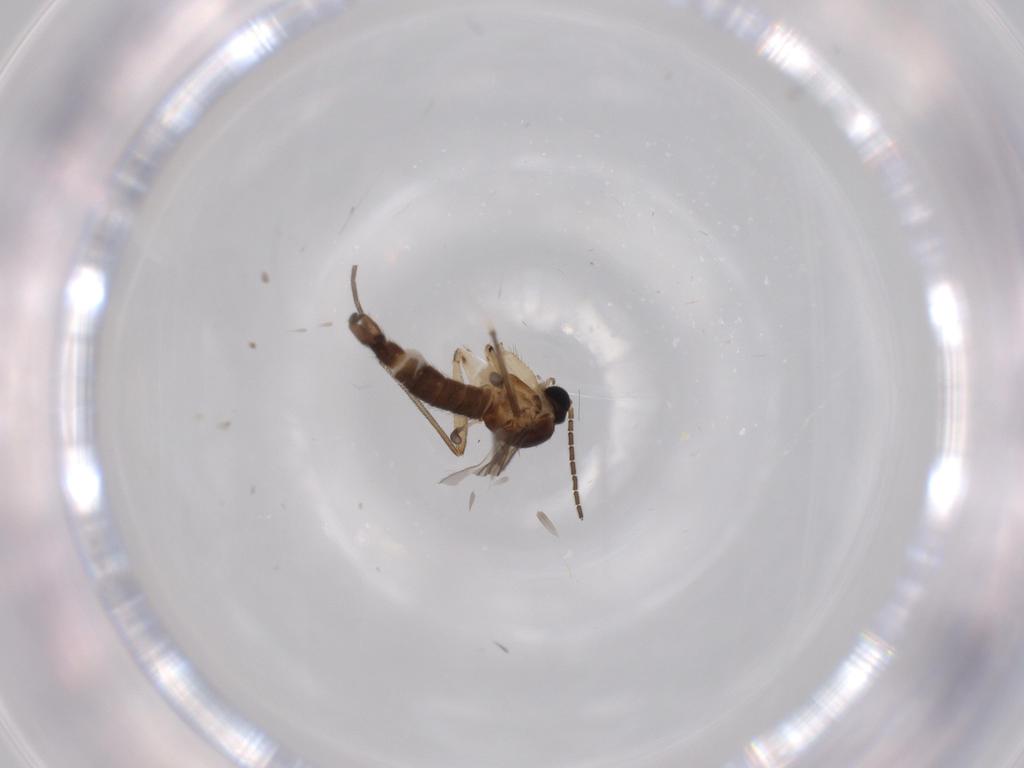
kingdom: Animalia
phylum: Arthropoda
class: Insecta
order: Diptera
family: Sciaridae
